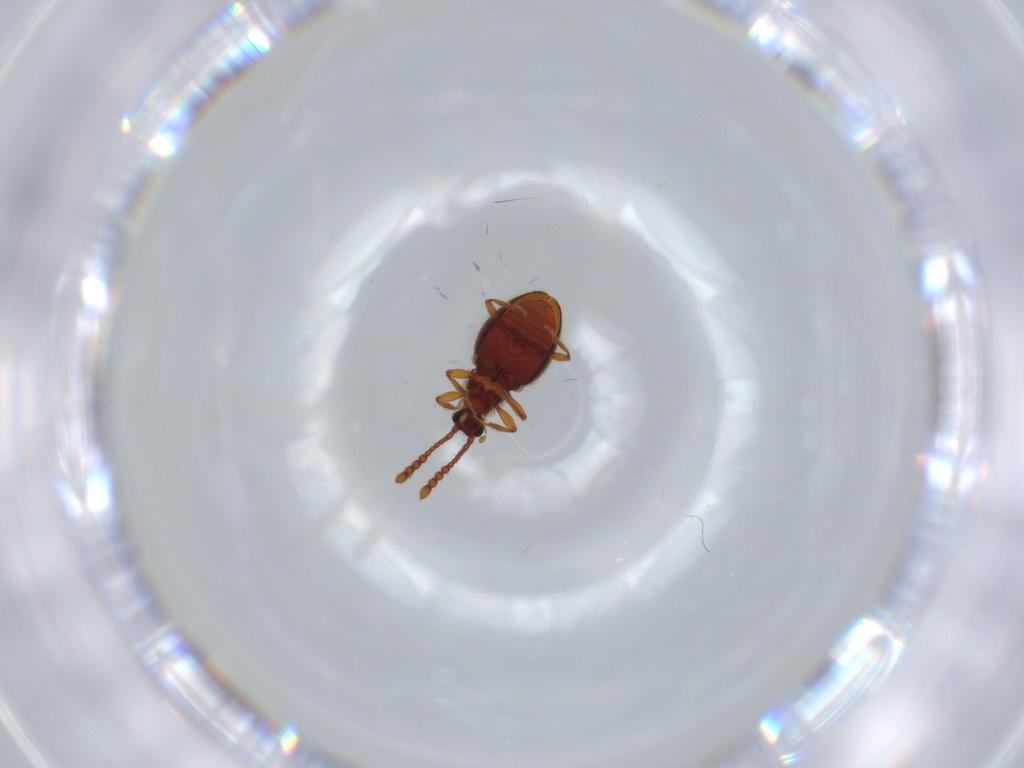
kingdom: Animalia
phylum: Arthropoda
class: Insecta
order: Coleoptera
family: Staphylinidae
